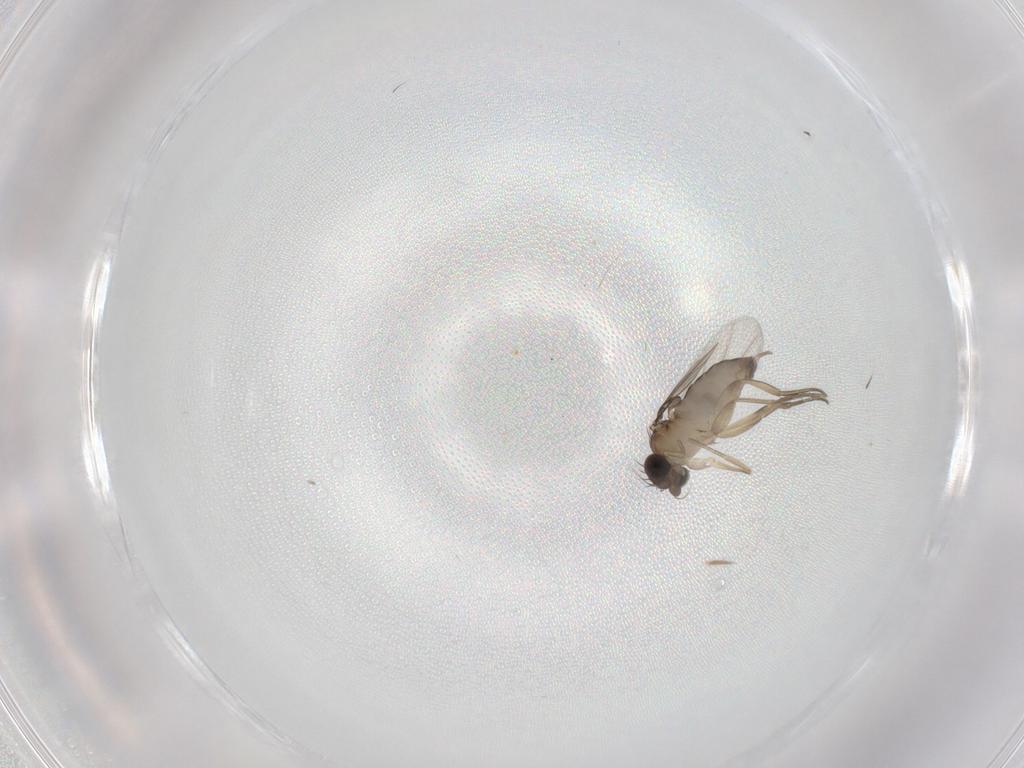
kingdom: Animalia
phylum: Arthropoda
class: Insecta
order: Diptera
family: Phoridae
